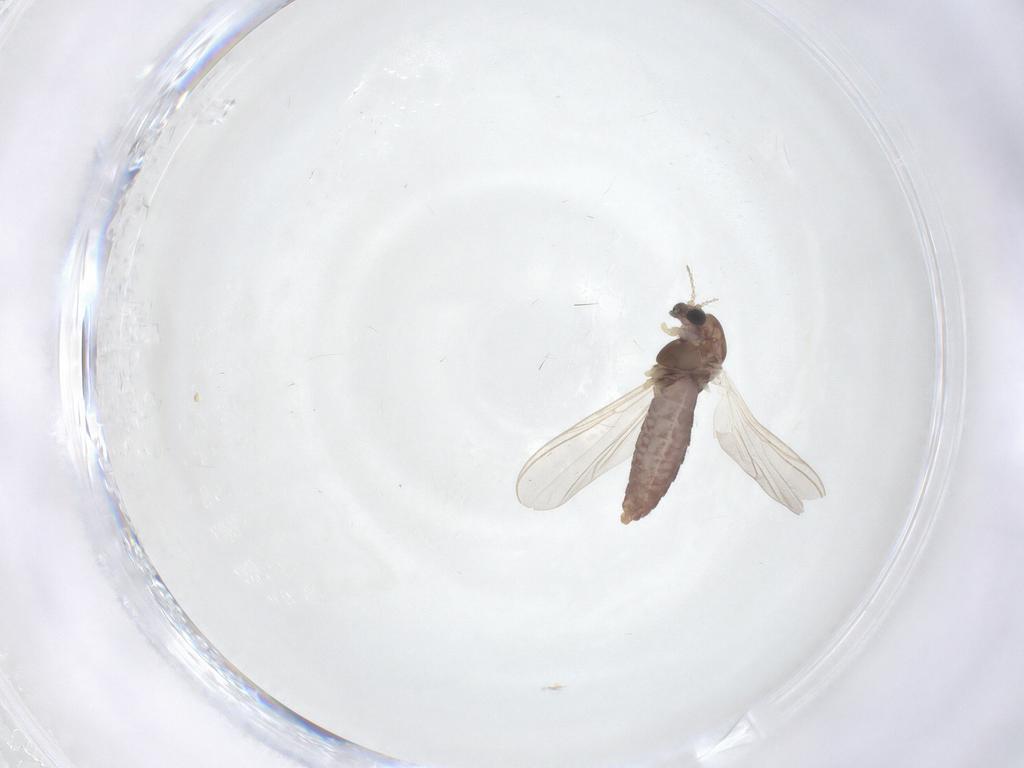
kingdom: Animalia
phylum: Arthropoda
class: Insecta
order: Diptera
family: Chironomidae
